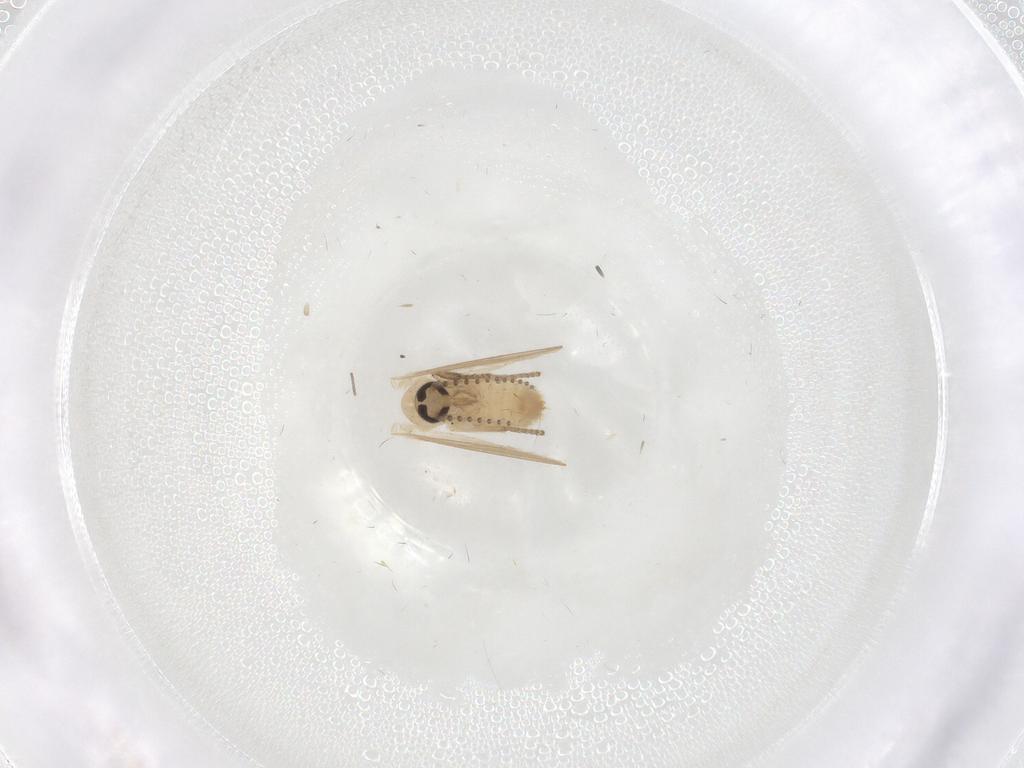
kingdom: Animalia
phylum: Arthropoda
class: Insecta
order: Diptera
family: Psychodidae
